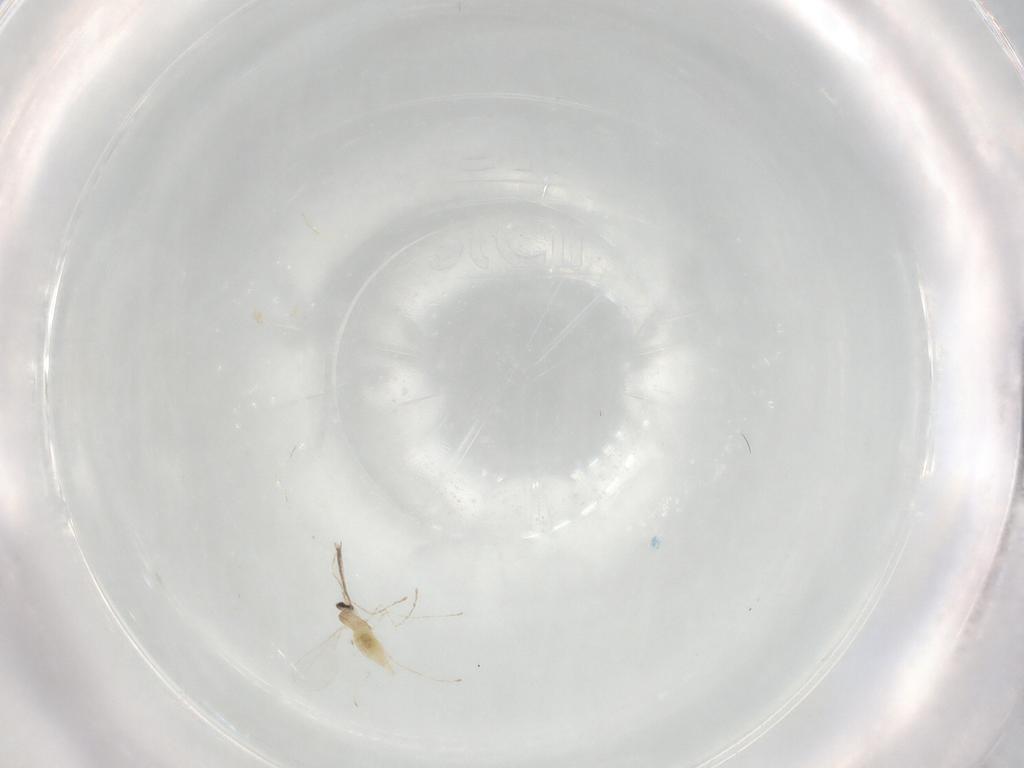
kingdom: Animalia
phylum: Arthropoda
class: Insecta
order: Diptera
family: Cecidomyiidae
